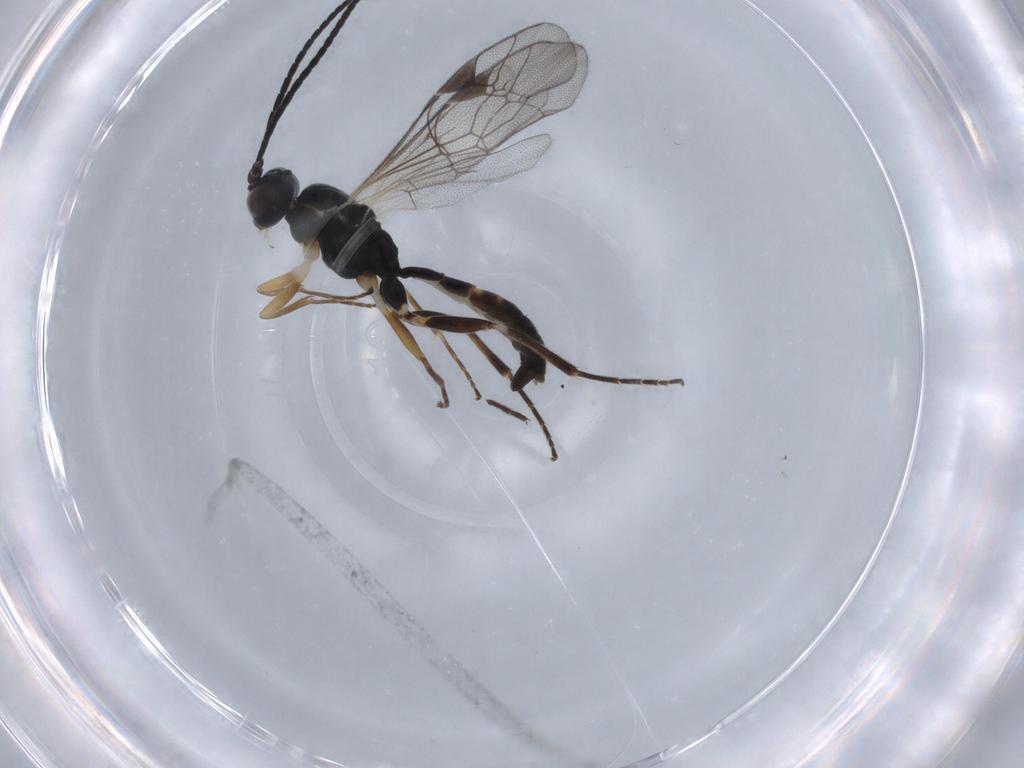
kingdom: Animalia
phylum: Arthropoda
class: Insecta
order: Hymenoptera
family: Ichneumonidae
